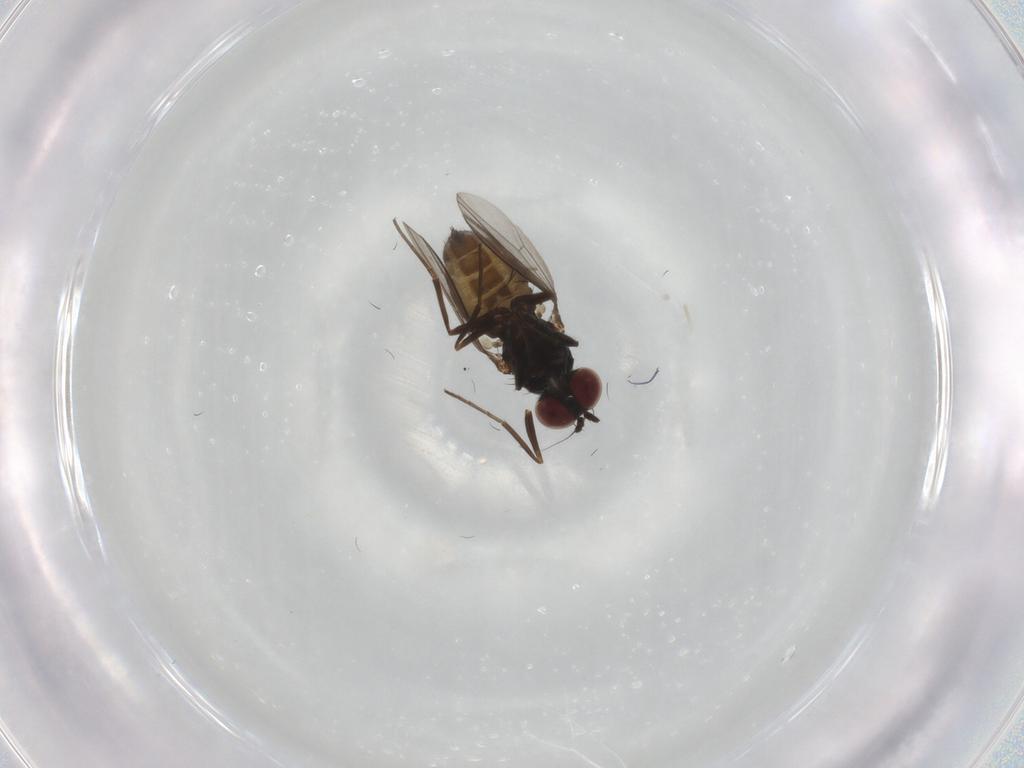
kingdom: Animalia
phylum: Arthropoda
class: Insecta
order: Diptera
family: Dolichopodidae
